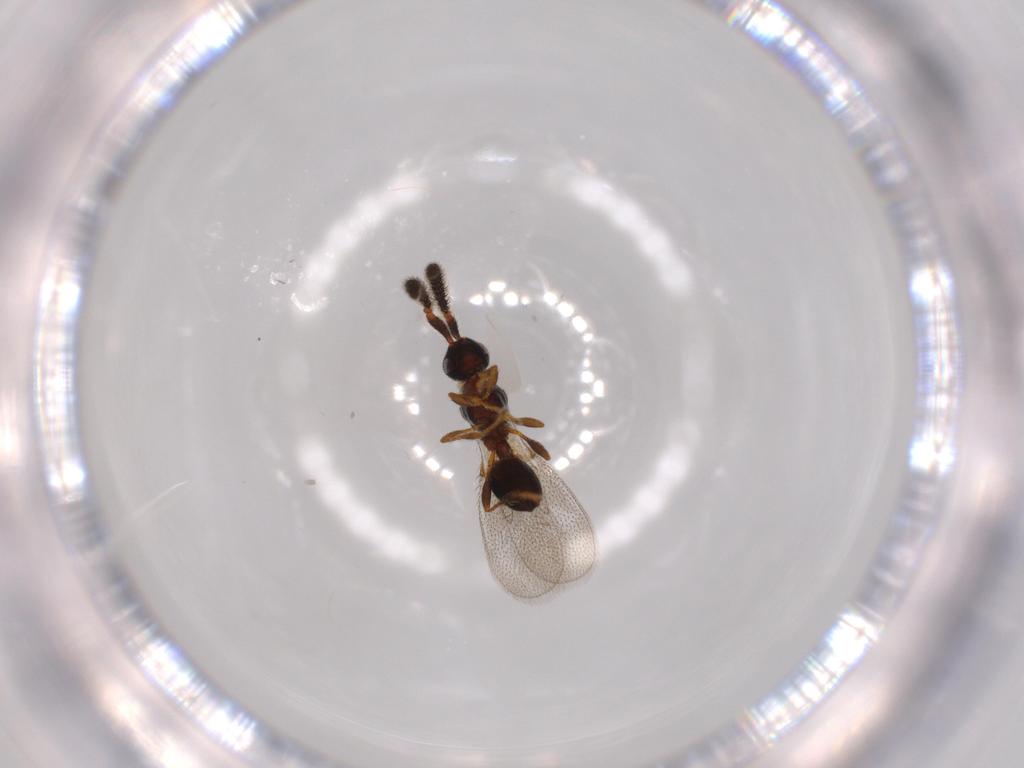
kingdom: Animalia
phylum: Arthropoda
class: Insecta
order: Hymenoptera
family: Diapriidae
